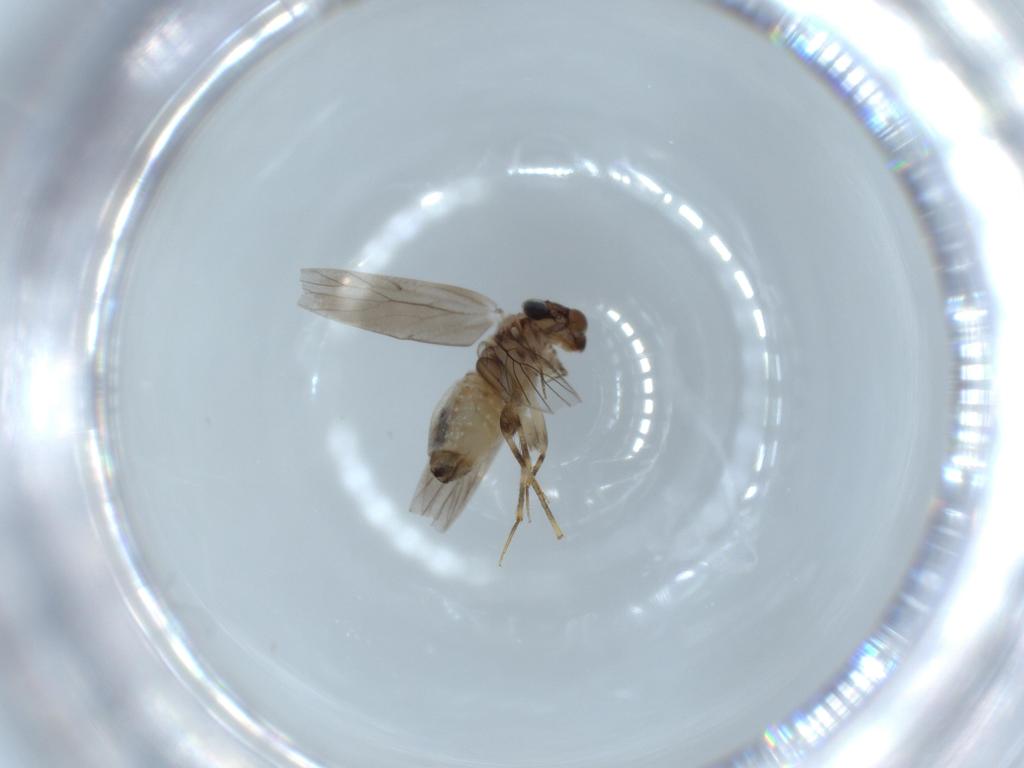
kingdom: Animalia
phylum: Arthropoda
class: Insecta
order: Psocodea
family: Lepidopsocidae
